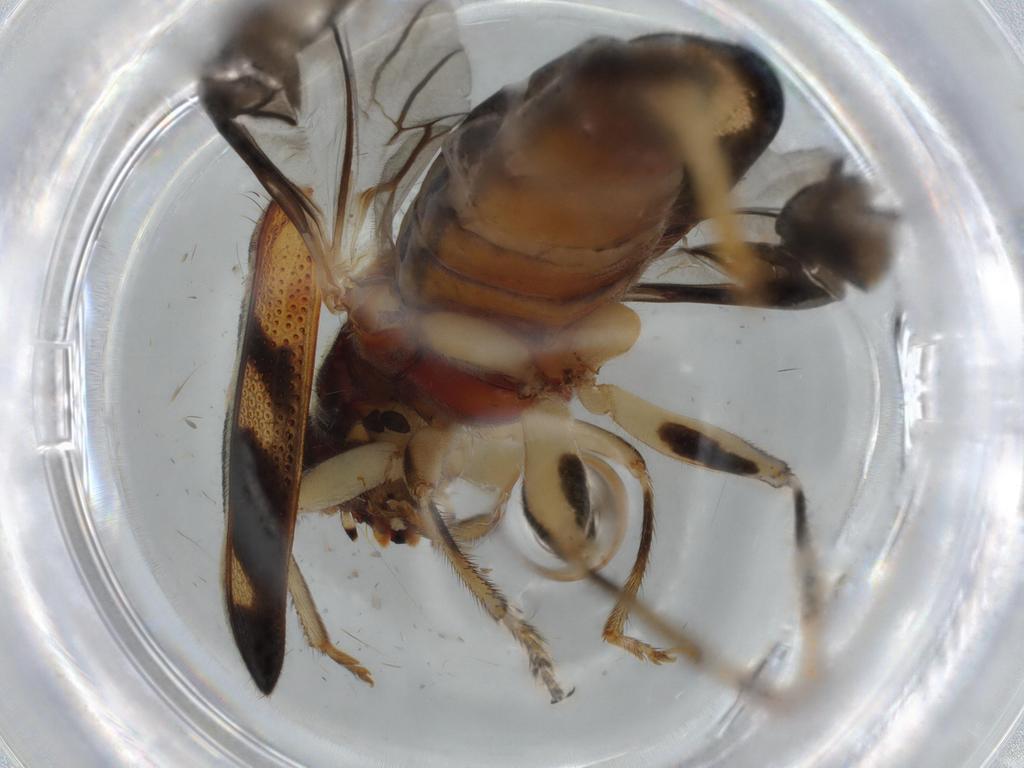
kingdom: Animalia
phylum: Arthropoda
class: Insecta
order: Coleoptera
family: Cleridae
